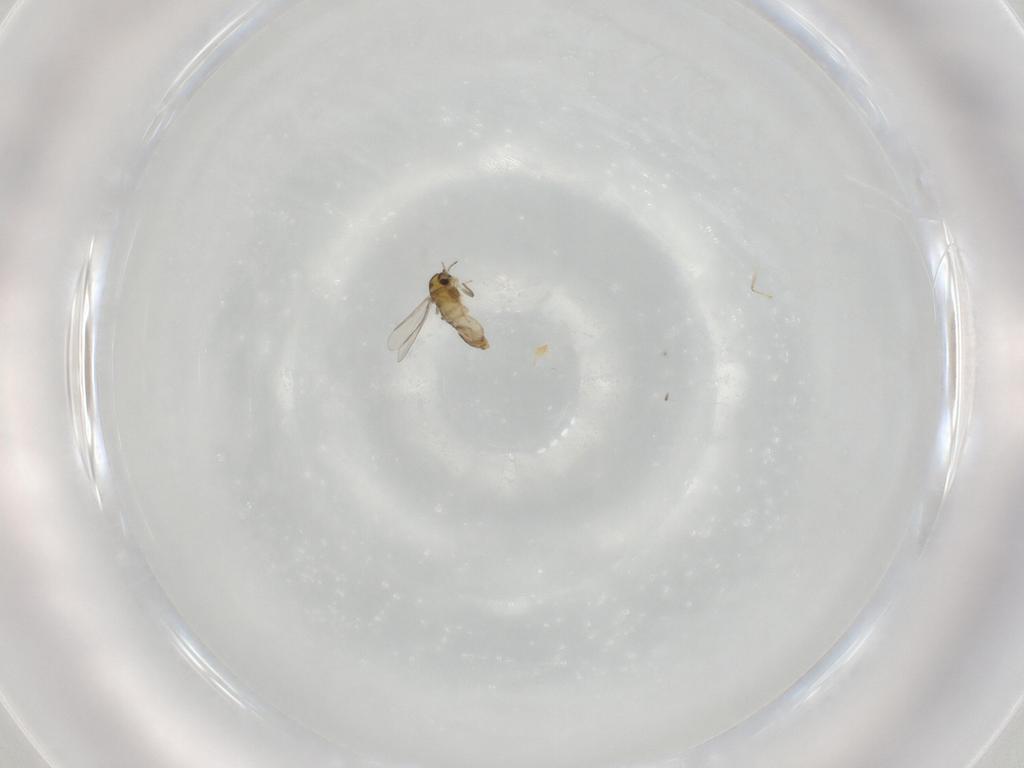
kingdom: Animalia
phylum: Arthropoda
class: Insecta
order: Diptera
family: Chironomidae
